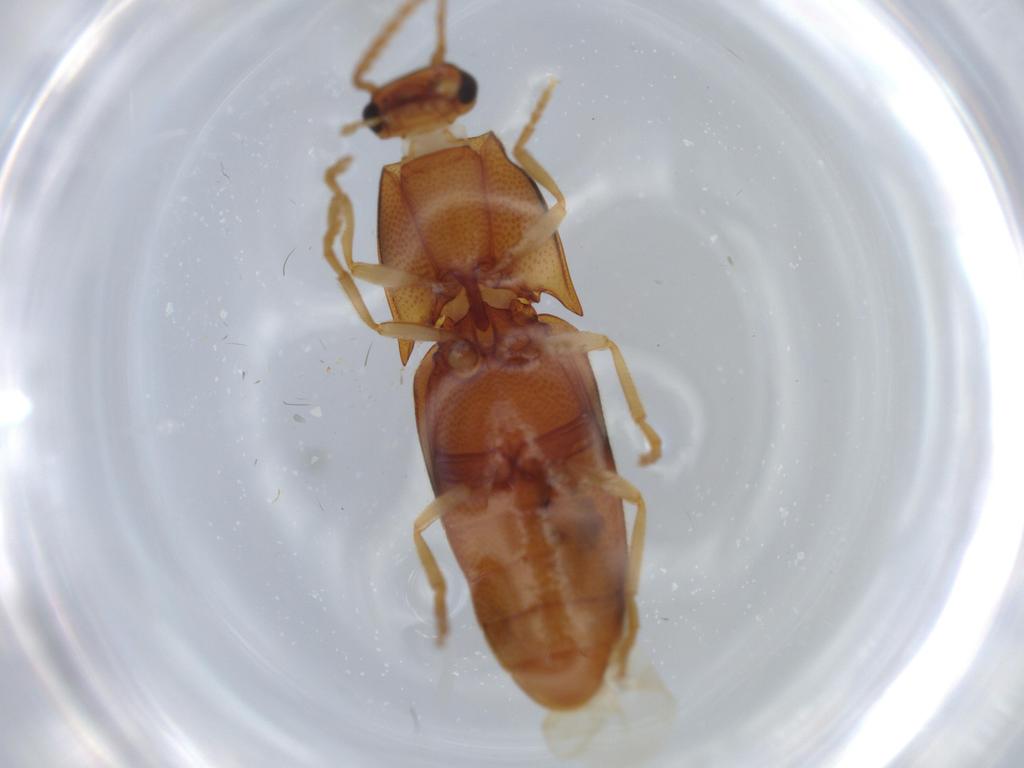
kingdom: Animalia
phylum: Arthropoda
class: Insecta
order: Coleoptera
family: Elateridae
